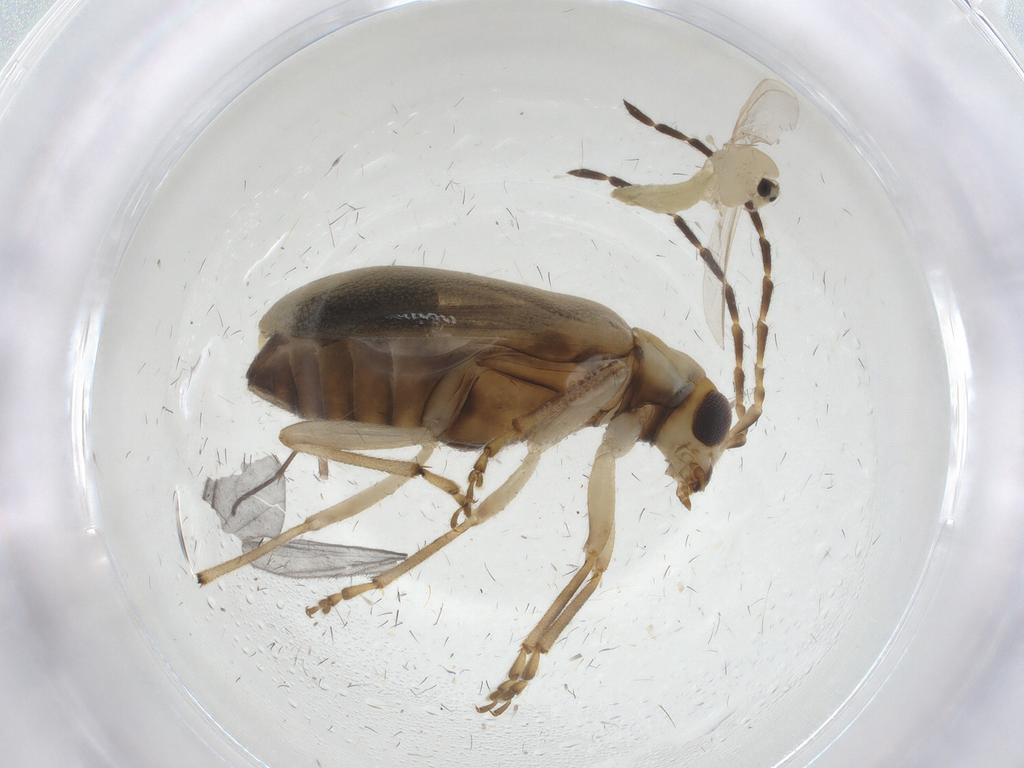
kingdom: Animalia
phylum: Arthropoda
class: Insecta
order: Diptera
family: Chironomidae
